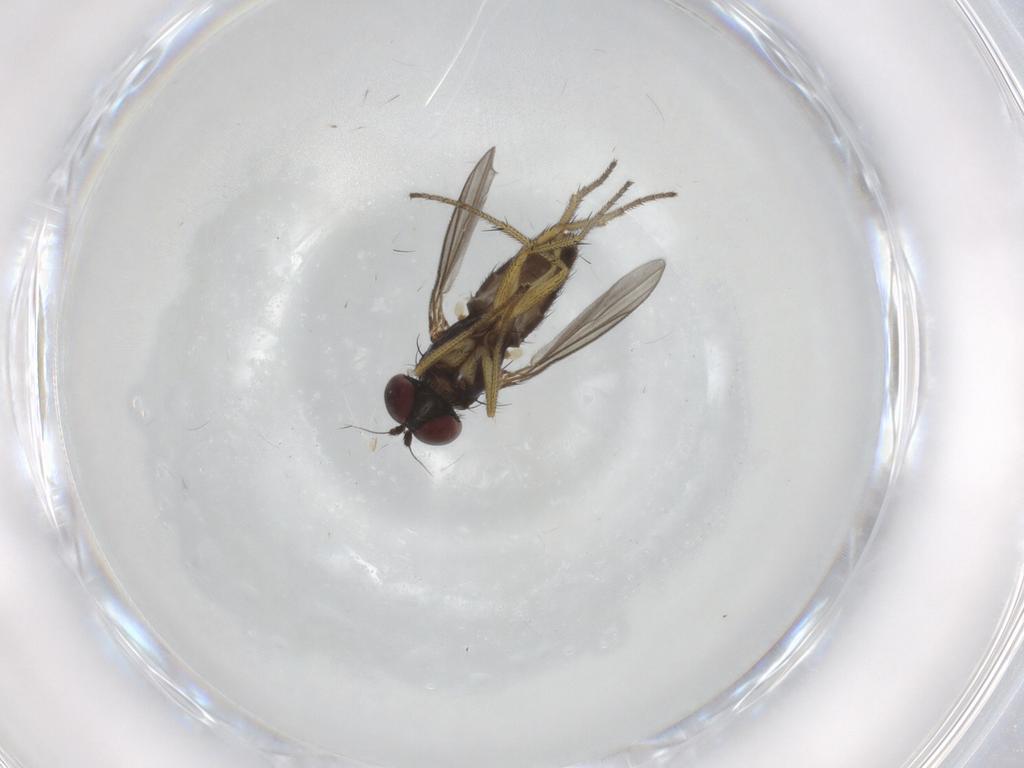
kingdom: Animalia
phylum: Arthropoda
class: Insecta
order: Diptera
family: Dolichopodidae
